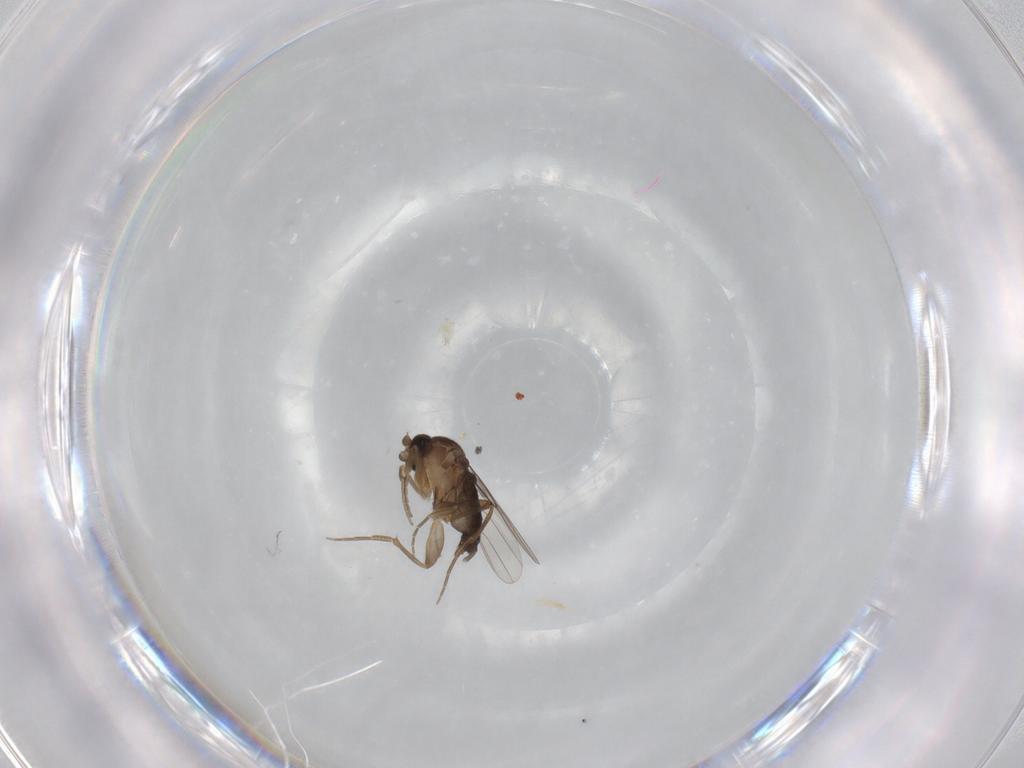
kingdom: Animalia
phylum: Arthropoda
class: Insecta
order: Diptera
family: Phoridae
